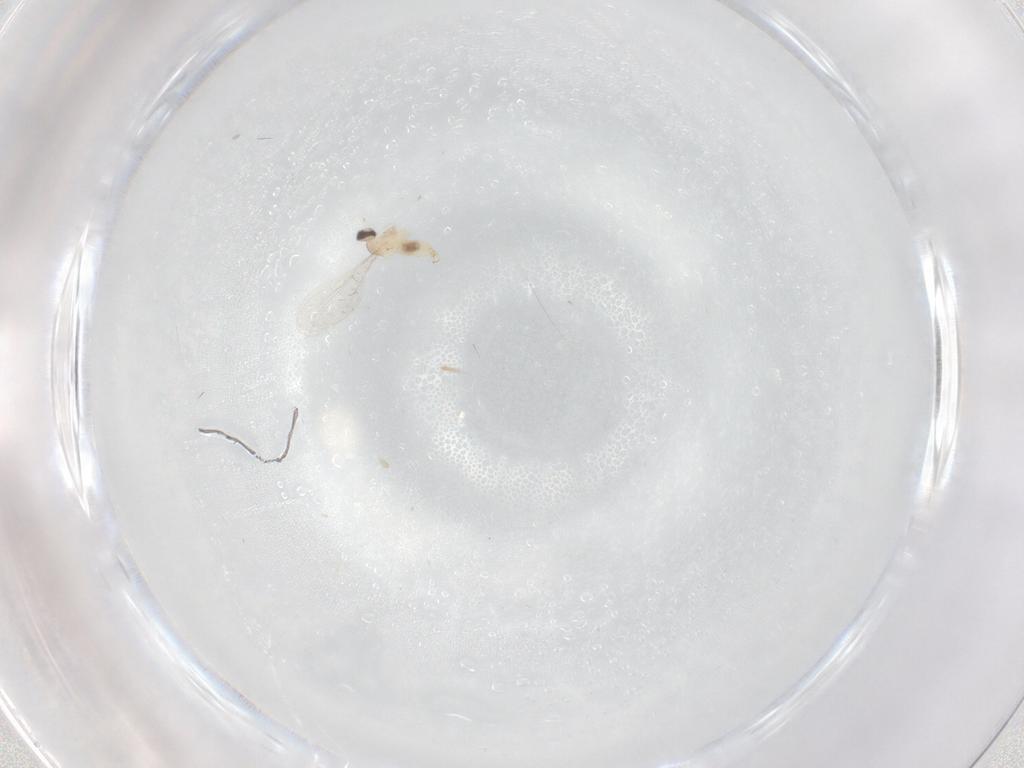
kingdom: Animalia
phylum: Arthropoda
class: Insecta
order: Diptera
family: Cecidomyiidae
